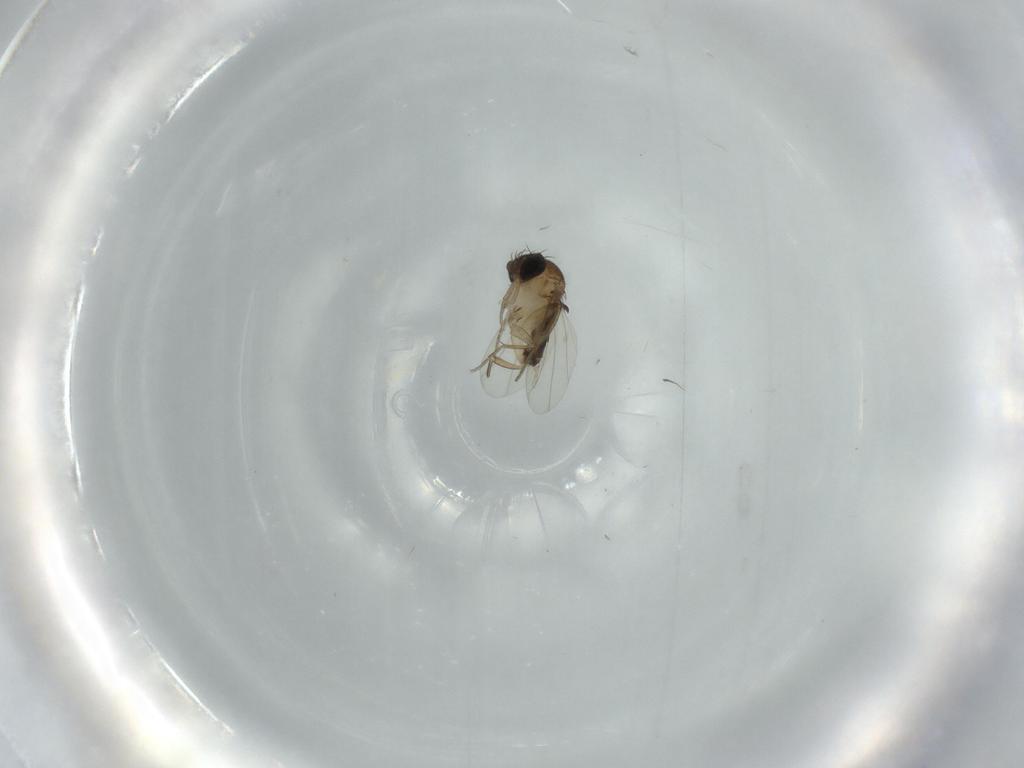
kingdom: Animalia
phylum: Arthropoda
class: Insecta
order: Diptera
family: Phoridae
